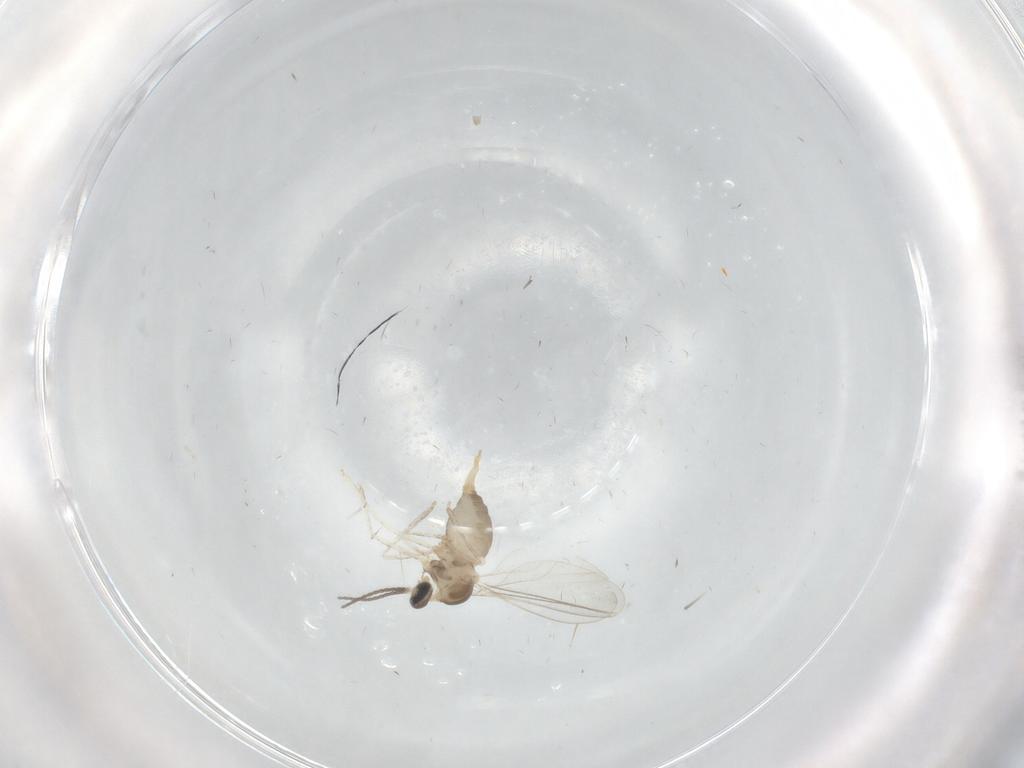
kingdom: Animalia
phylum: Arthropoda
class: Insecta
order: Diptera
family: Cecidomyiidae
